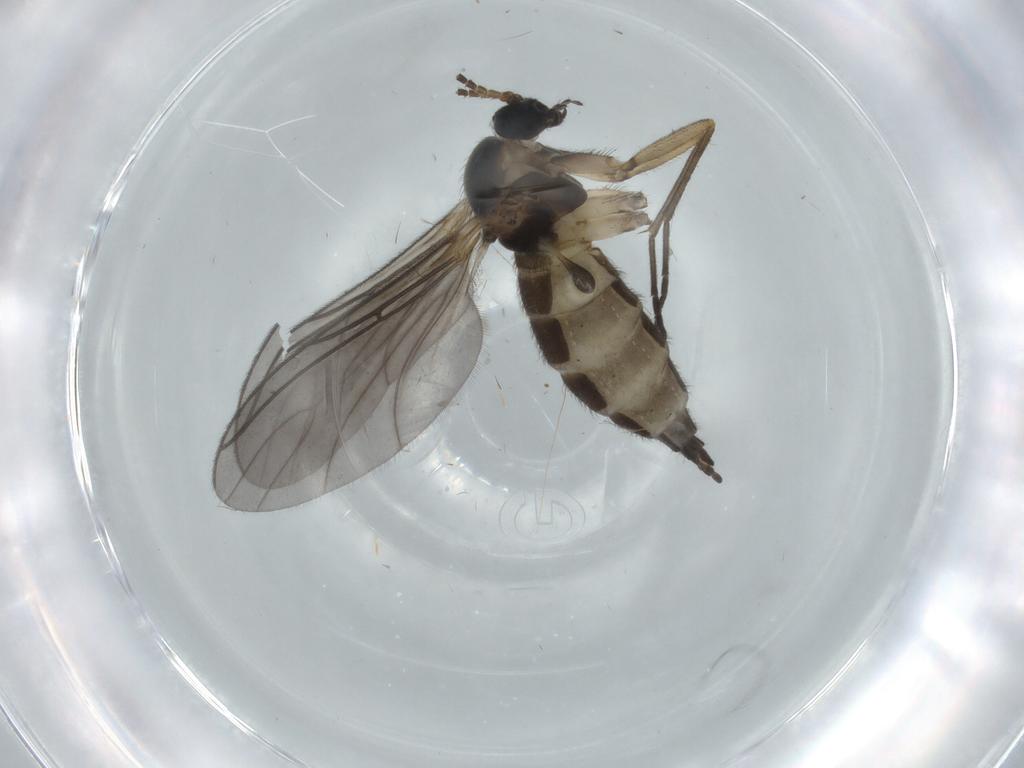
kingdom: Animalia
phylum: Arthropoda
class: Insecta
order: Diptera
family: Sciaridae
